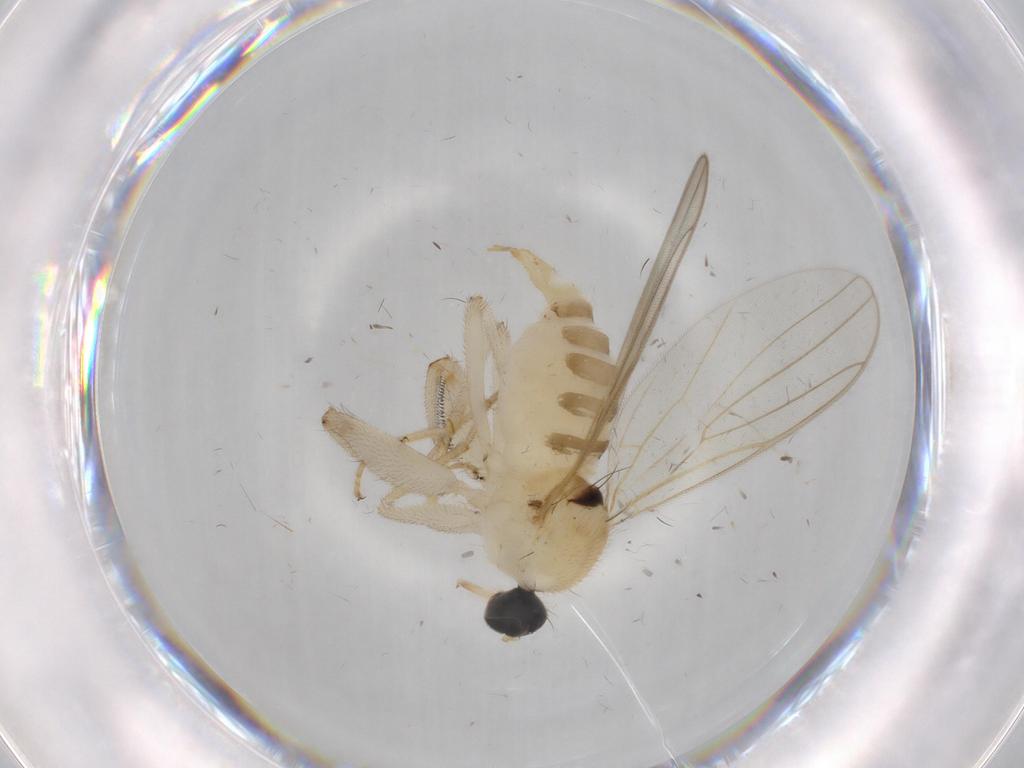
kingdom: Animalia
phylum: Arthropoda
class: Insecta
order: Diptera
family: Hybotidae
